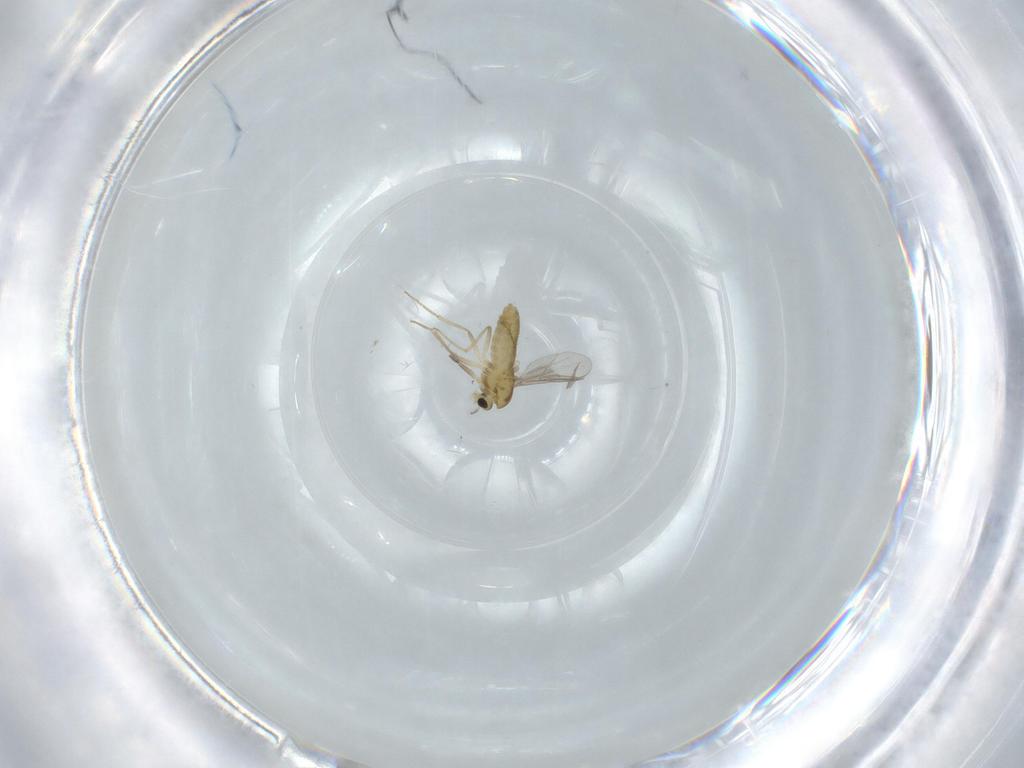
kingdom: Animalia
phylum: Arthropoda
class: Insecta
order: Diptera
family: Chironomidae
